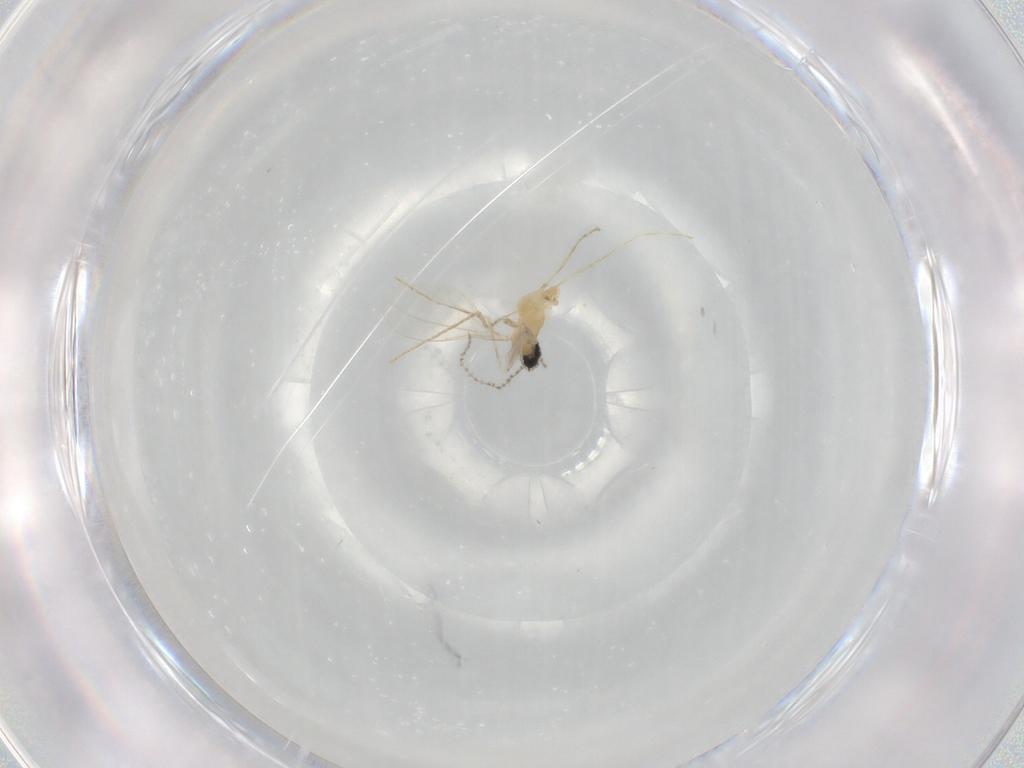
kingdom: Animalia
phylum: Arthropoda
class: Insecta
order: Diptera
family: Cecidomyiidae
